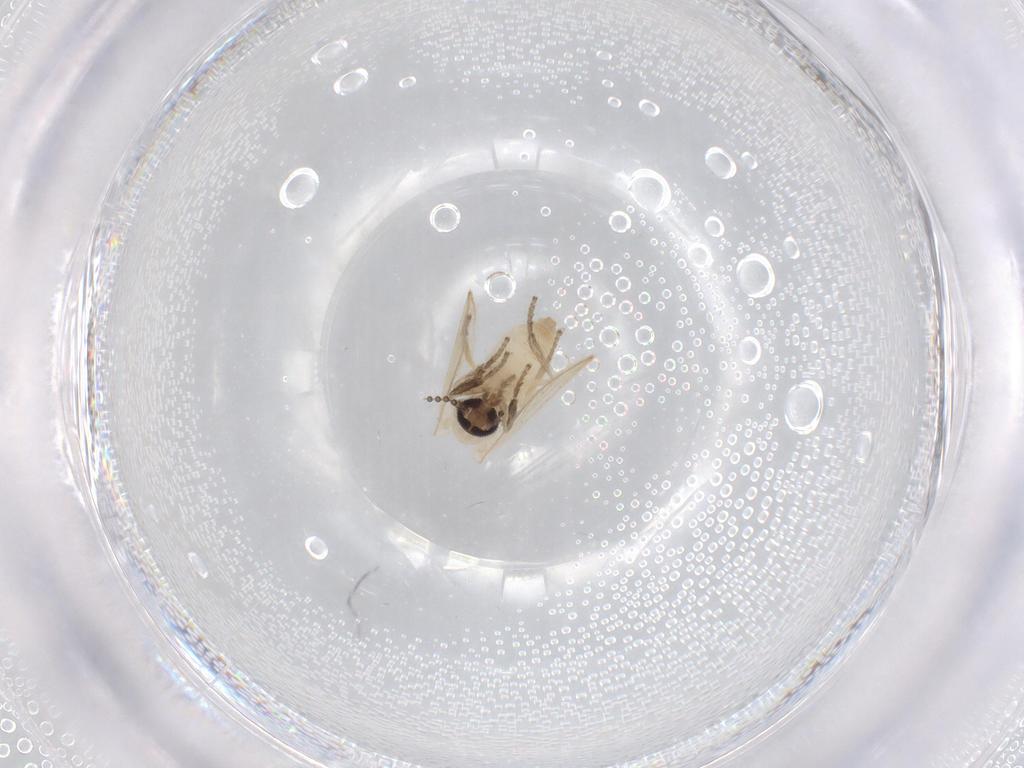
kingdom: Animalia
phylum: Arthropoda
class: Insecta
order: Diptera
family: Psychodidae
